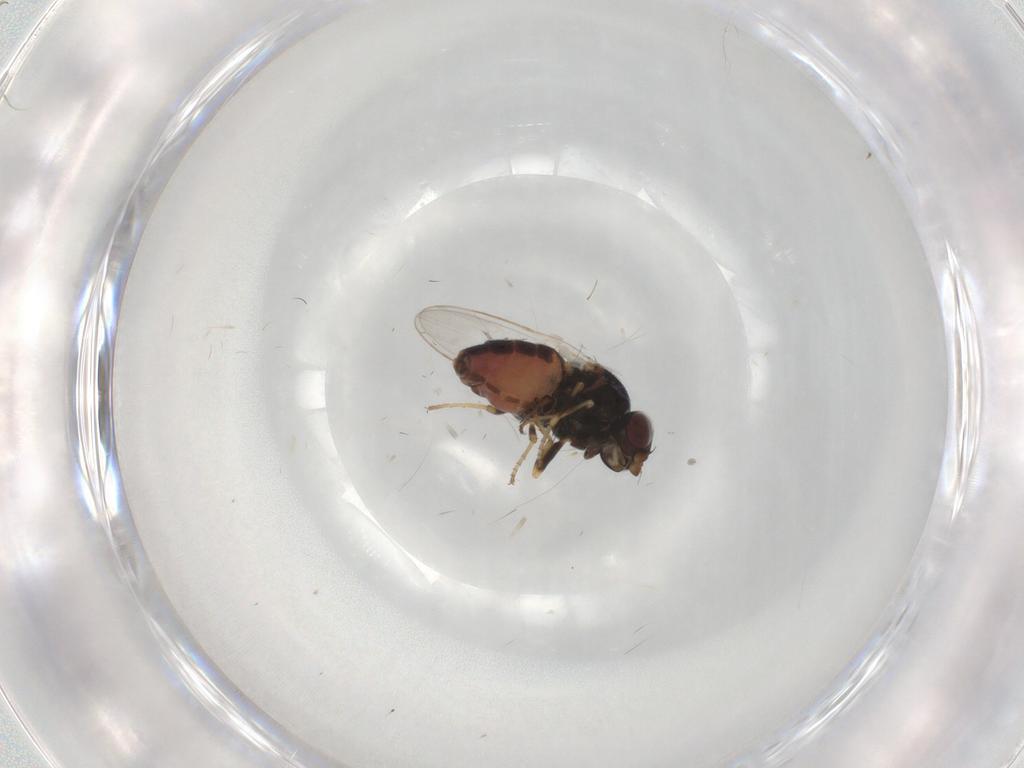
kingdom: Animalia
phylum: Arthropoda
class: Insecta
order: Diptera
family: Chloropidae
